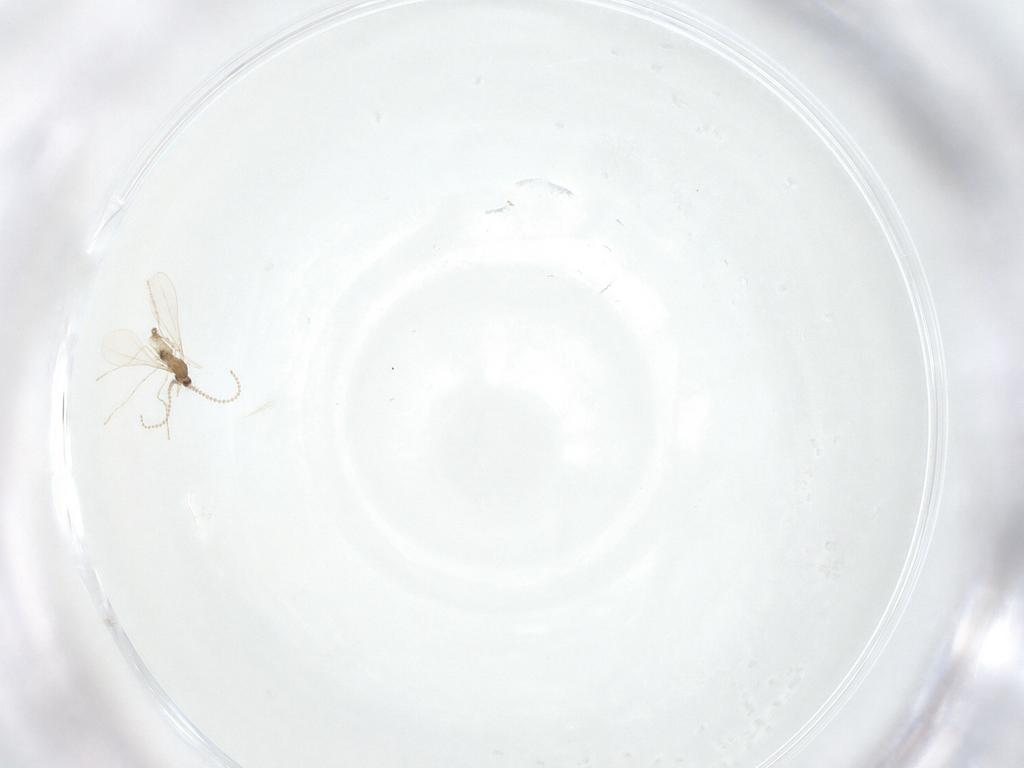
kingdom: Animalia
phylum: Arthropoda
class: Insecta
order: Diptera
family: Cecidomyiidae
